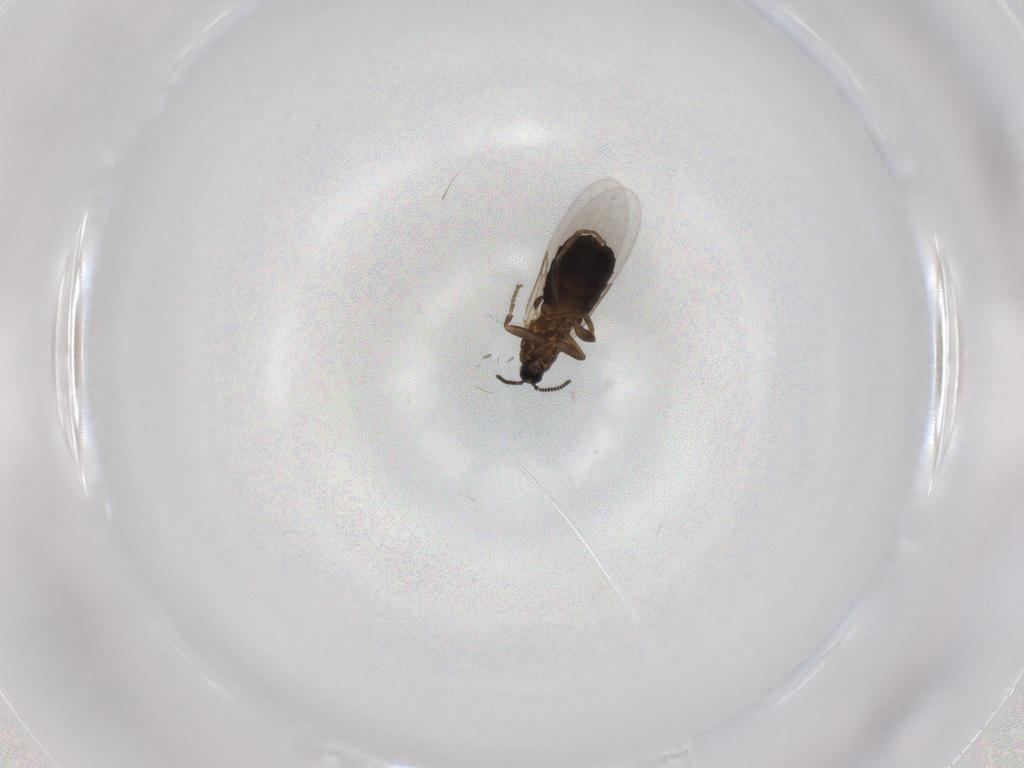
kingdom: Animalia
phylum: Arthropoda
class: Insecta
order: Diptera
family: Scatopsidae
